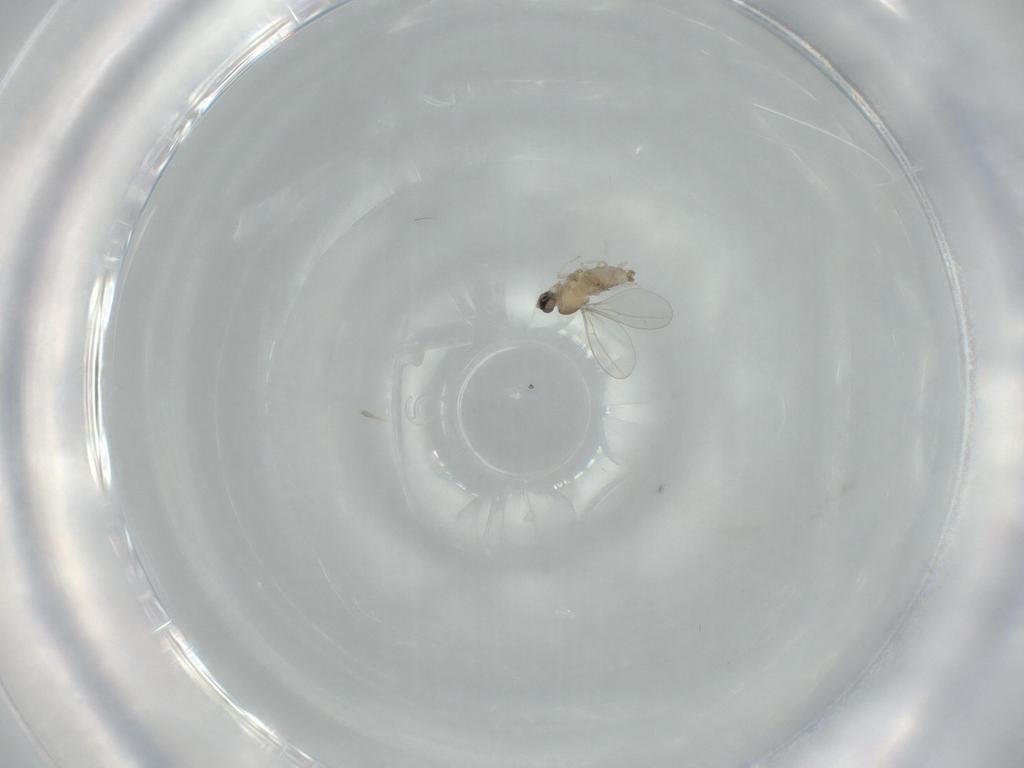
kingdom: Animalia
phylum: Arthropoda
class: Insecta
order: Diptera
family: Cecidomyiidae
